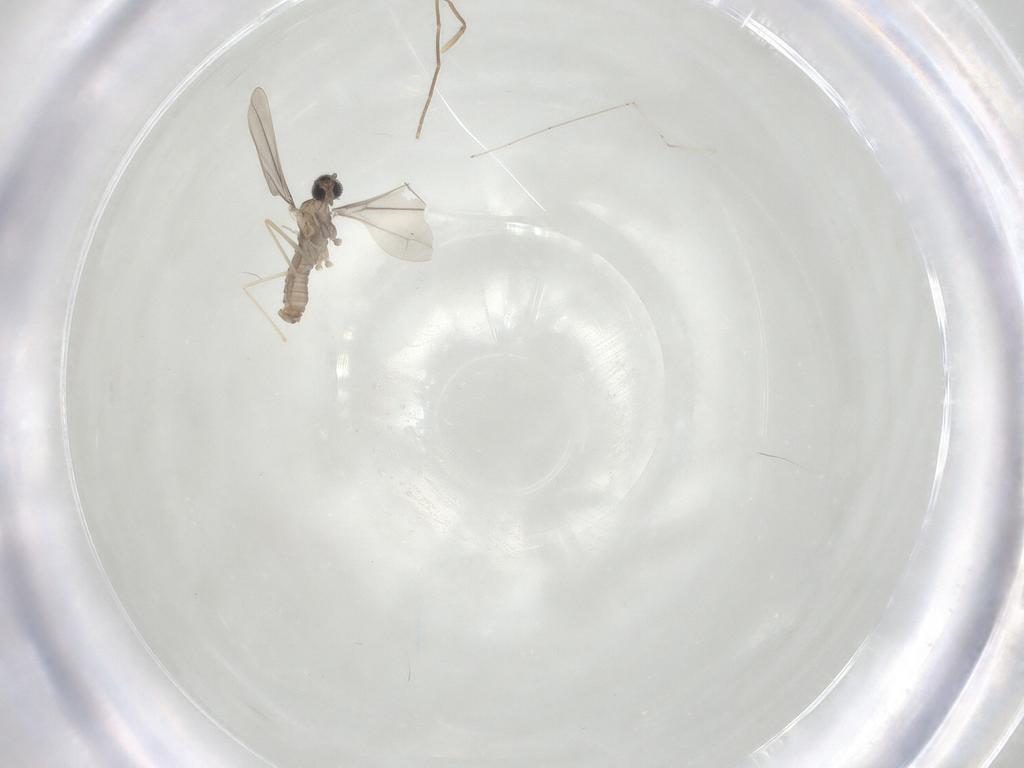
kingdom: Animalia
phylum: Arthropoda
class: Insecta
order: Diptera
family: Cecidomyiidae
